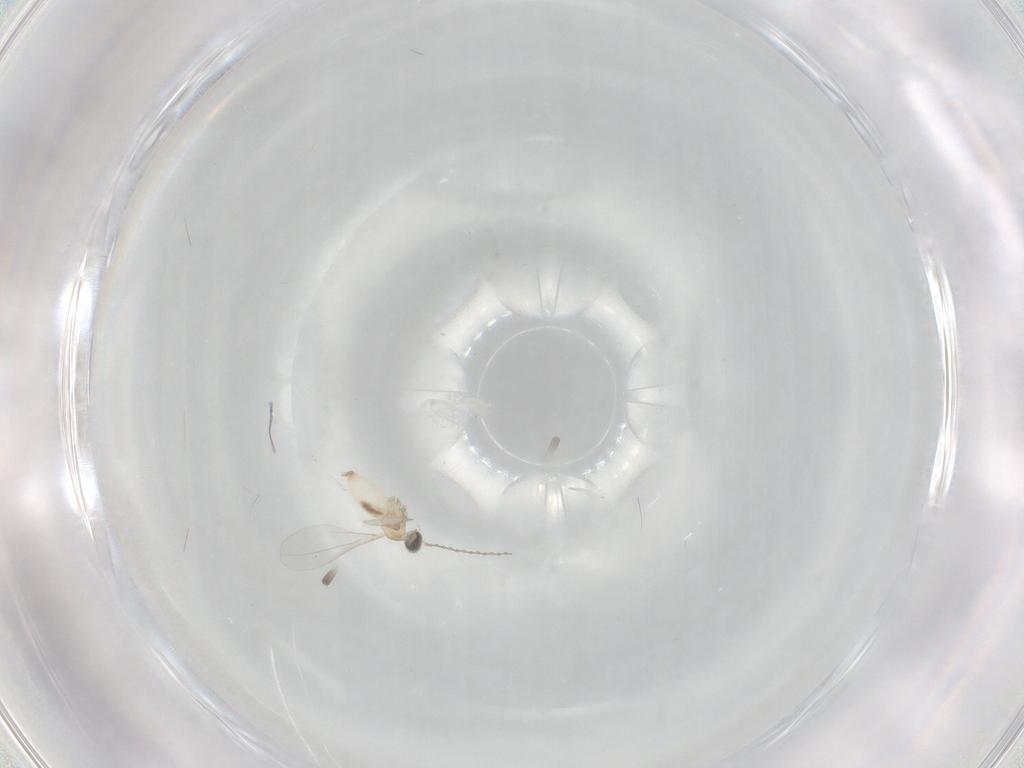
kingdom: Animalia
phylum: Arthropoda
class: Insecta
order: Diptera
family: Cecidomyiidae
